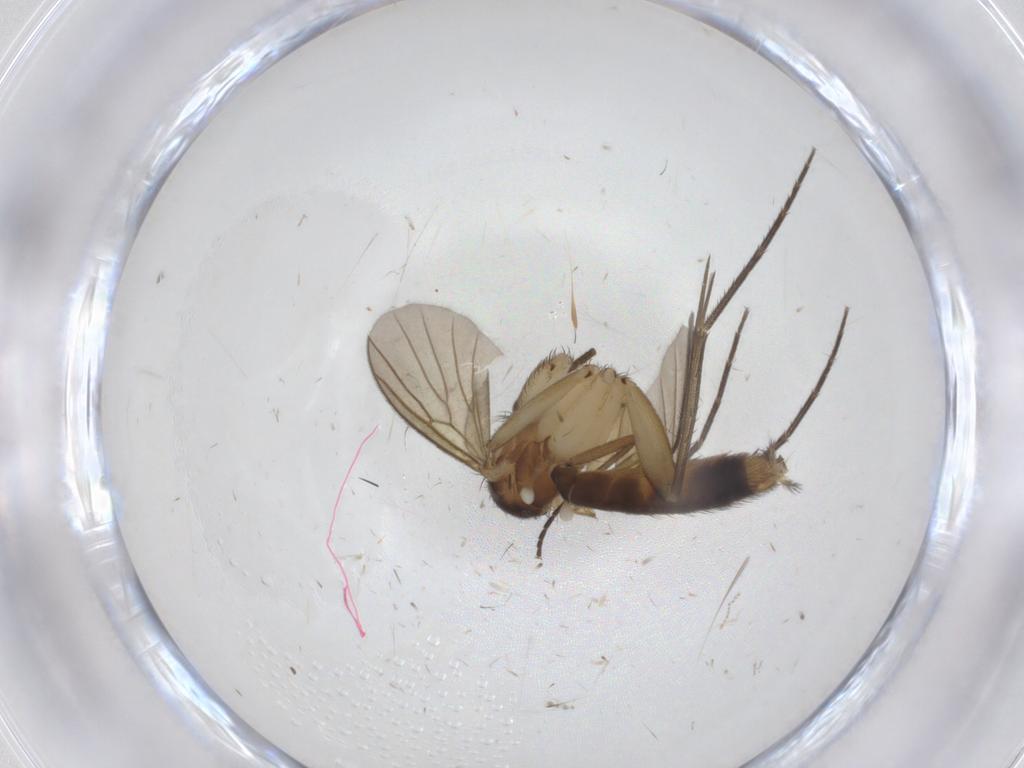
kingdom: Animalia
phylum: Arthropoda
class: Insecta
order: Diptera
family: Mycetophilidae
